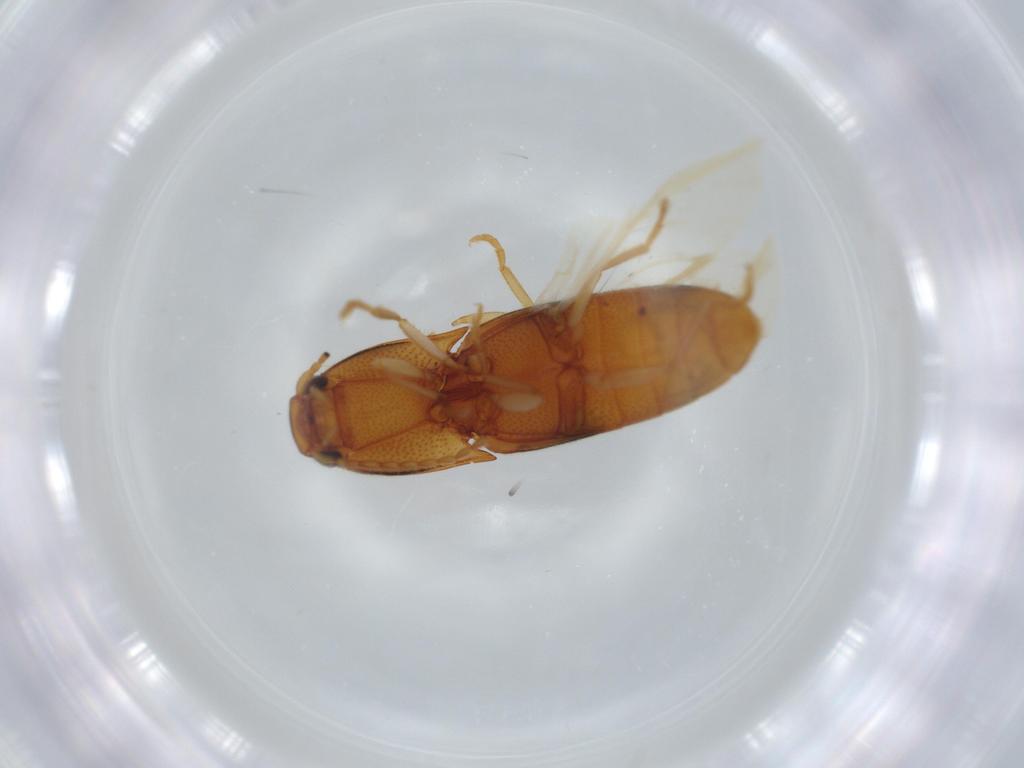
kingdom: Animalia
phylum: Arthropoda
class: Insecta
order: Coleoptera
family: Elateridae
